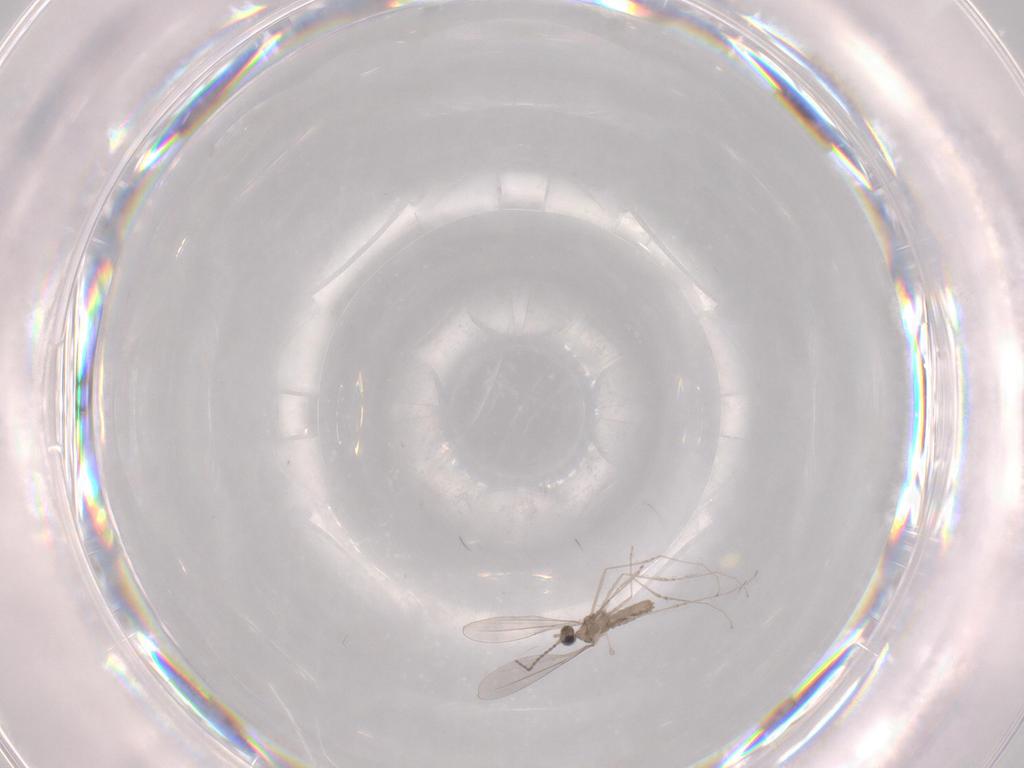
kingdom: Animalia
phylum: Arthropoda
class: Insecta
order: Diptera
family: Cecidomyiidae
